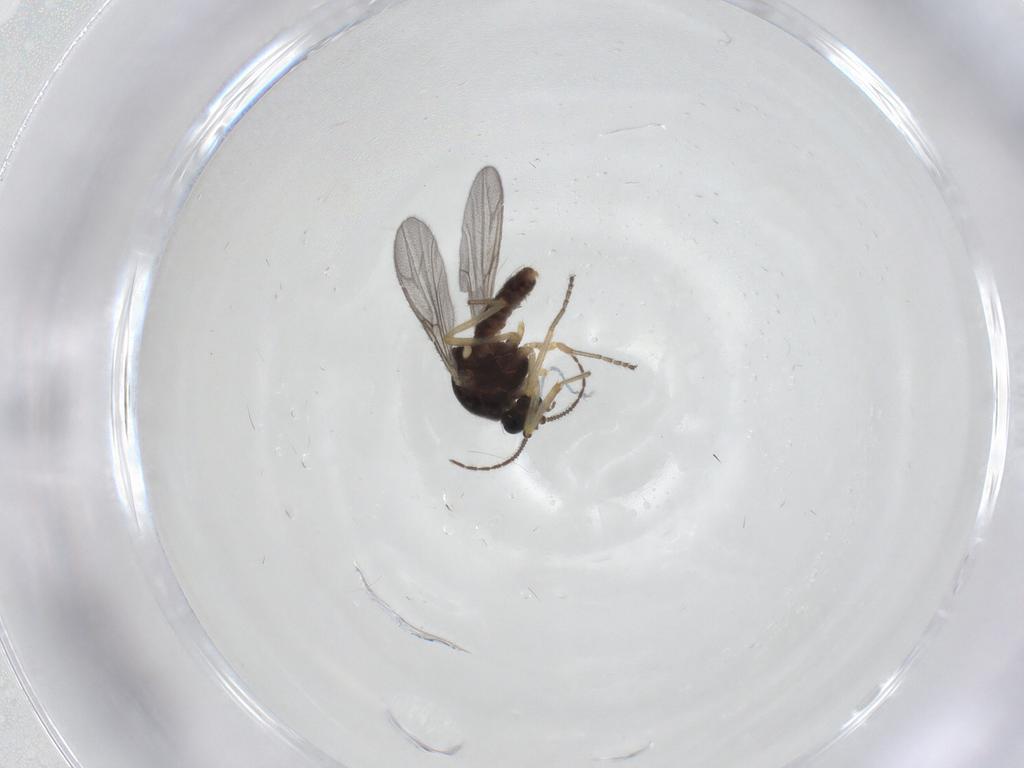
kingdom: Animalia
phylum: Arthropoda
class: Insecta
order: Diptera
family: Ceratopogonidae
